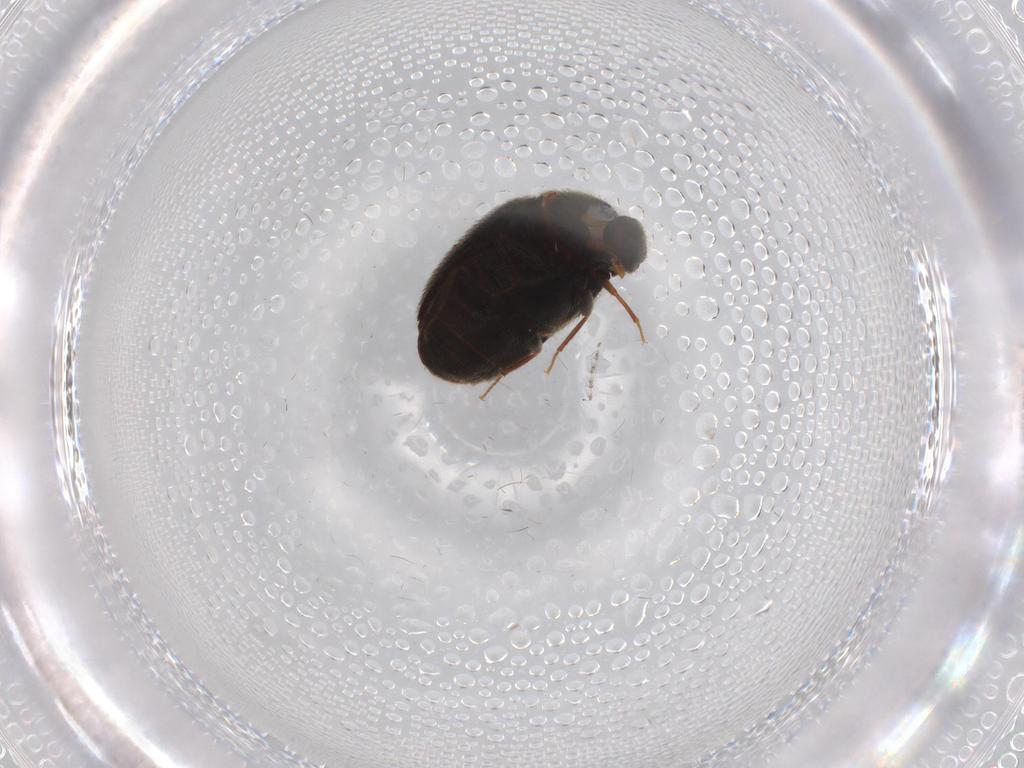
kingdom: Animalia
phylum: Arthropoda
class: Insecta
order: Coleoptera
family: Dermestidae
